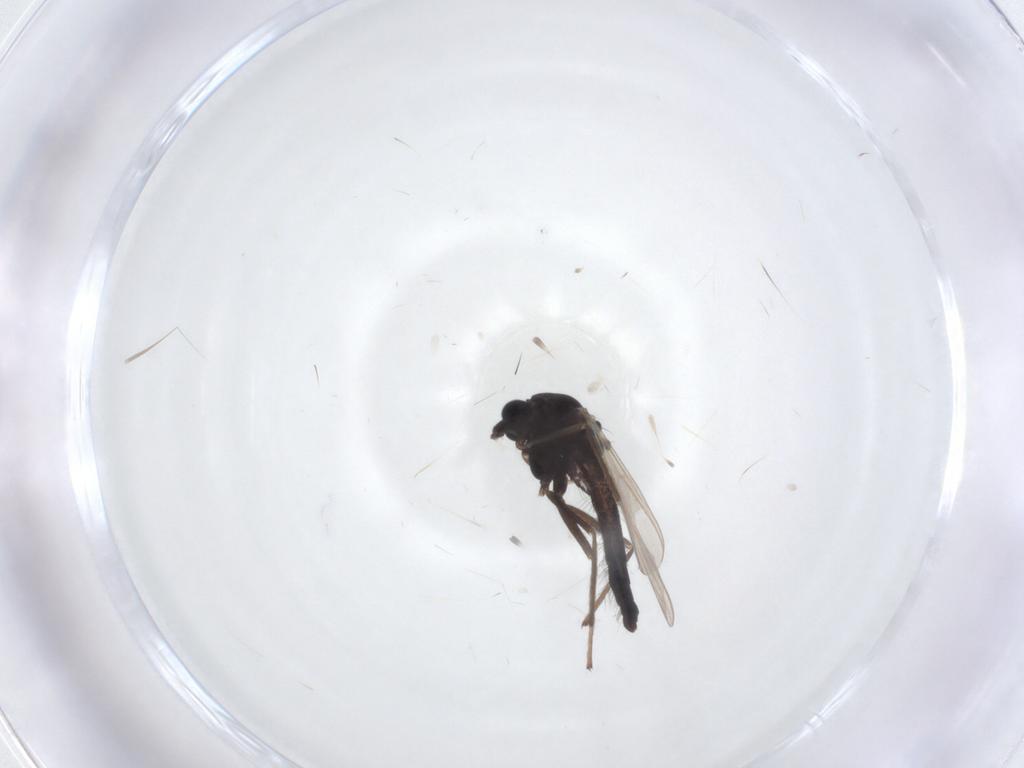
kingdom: Animalia
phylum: Arthropoda
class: Insecta
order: Diptera
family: Chironomidae
